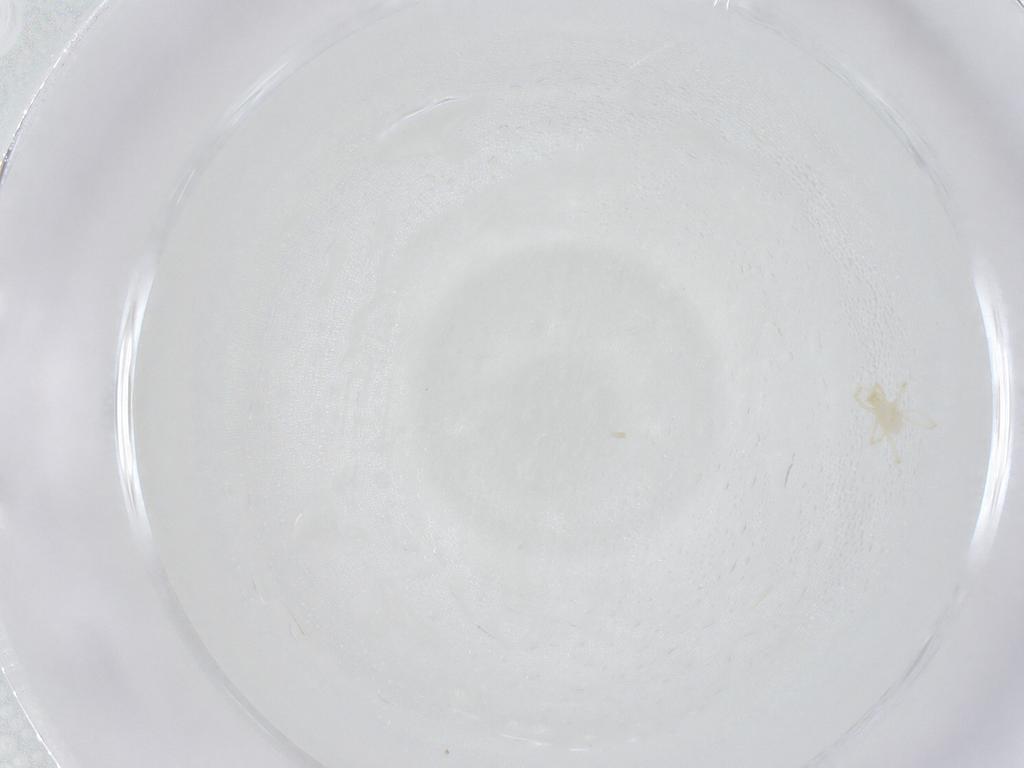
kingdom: Animalia
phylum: Arthropoda
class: Arachnida
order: Trombidiformes
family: Erythraeidae
